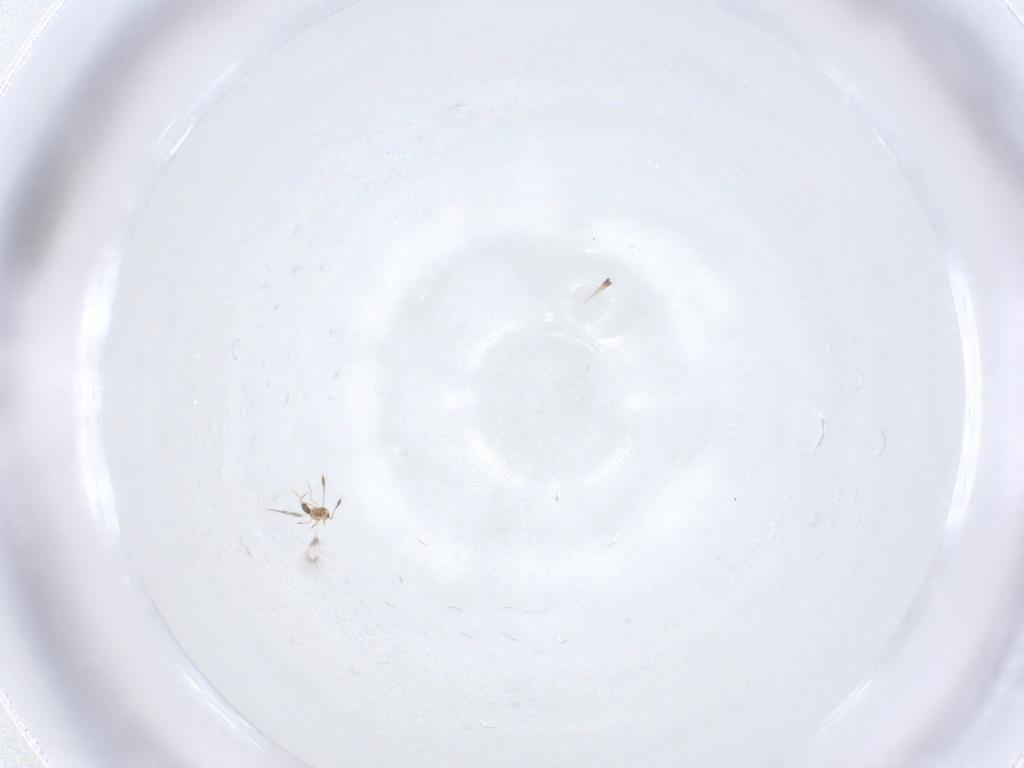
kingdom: Animalia
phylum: Arthropoda
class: Insecta
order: Hymenoptera
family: Mymarommatidae
